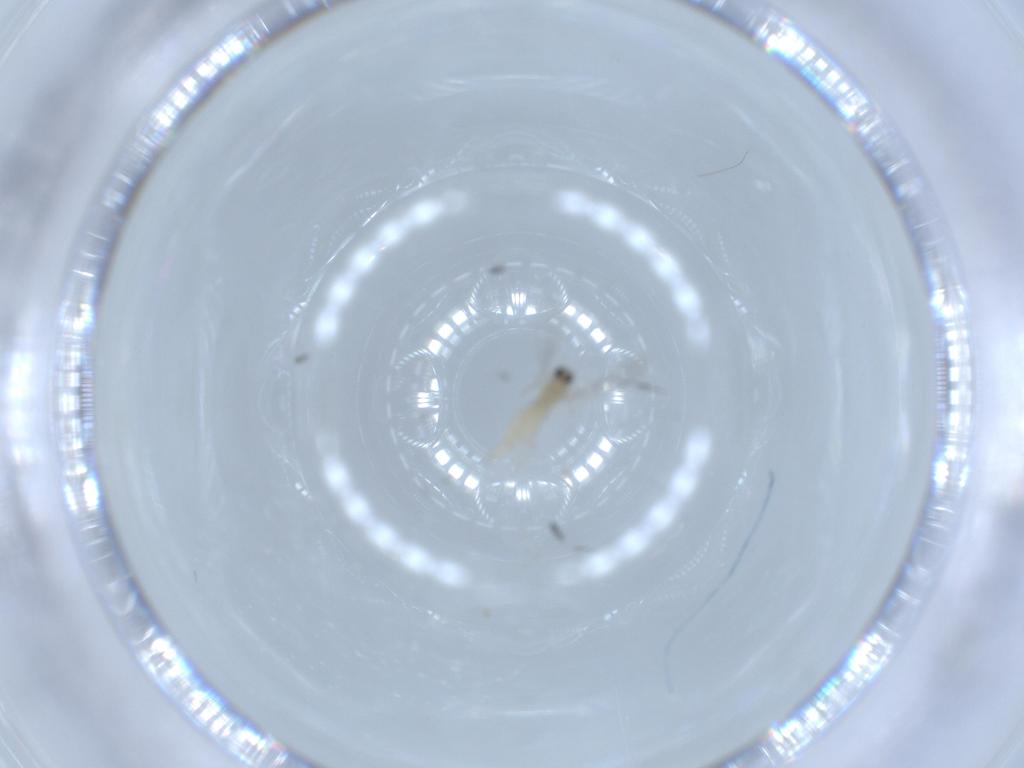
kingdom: Animalia
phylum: Arthropoda
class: Insecta
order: Diptera
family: Cecidomyiidae
